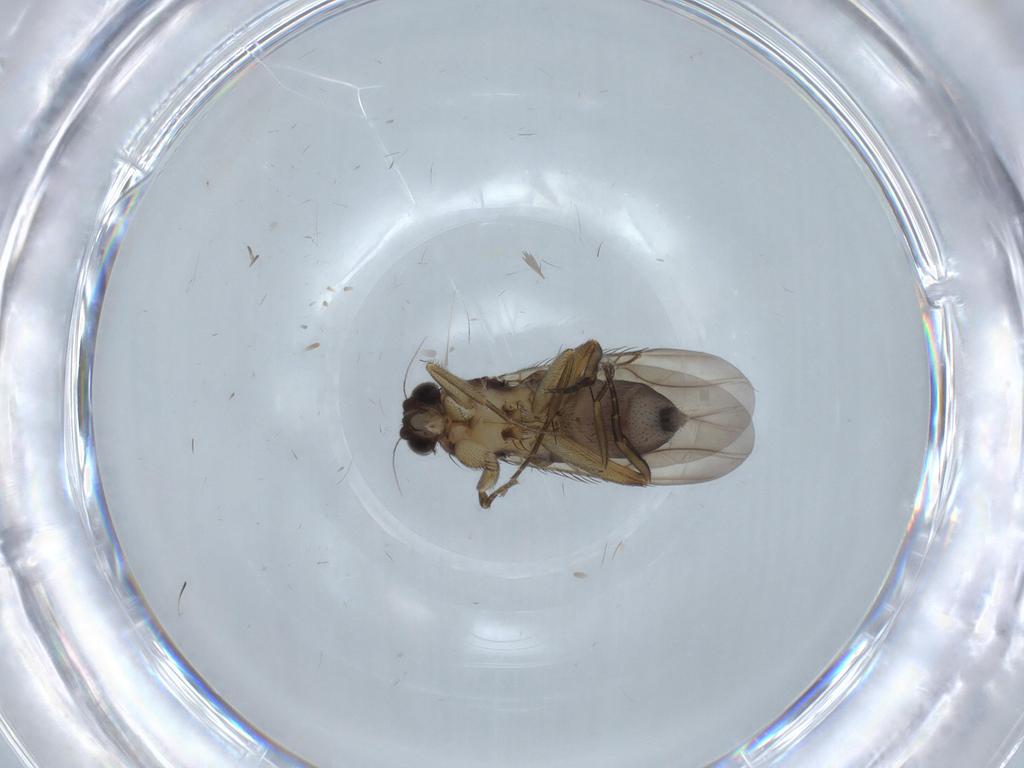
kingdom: Animalia
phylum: Arthropoda
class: Insecta
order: Diptera
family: Phoridae
